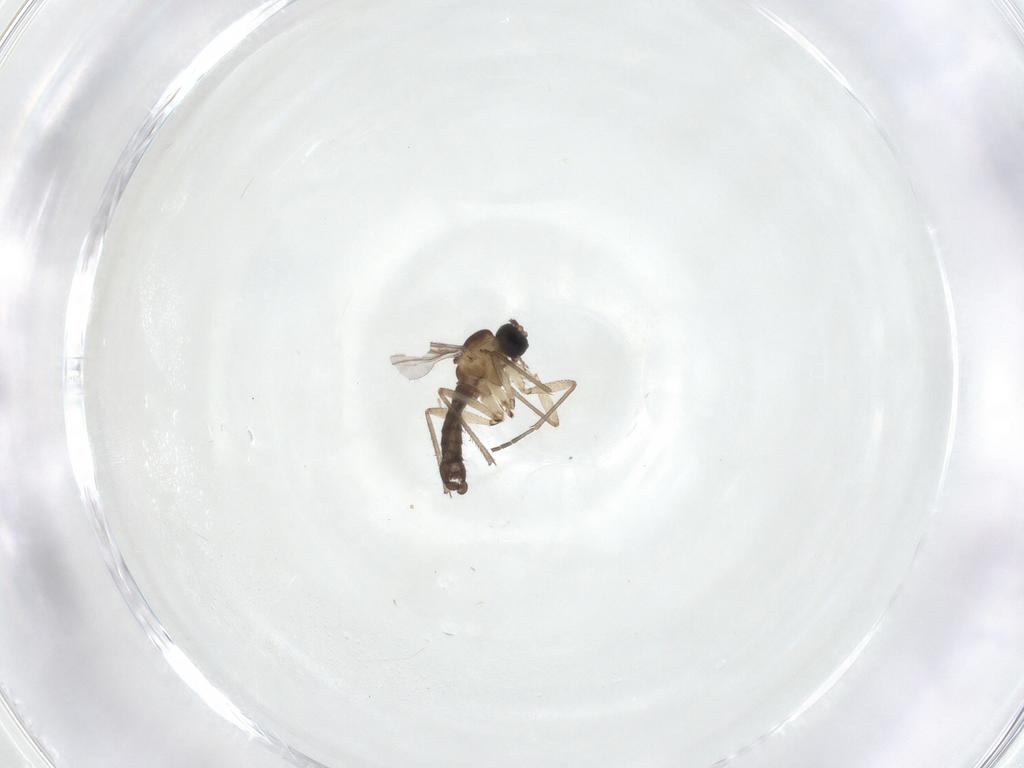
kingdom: Animalia
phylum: Arthropoda
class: Insecta
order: Diptera
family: Sciaridae
